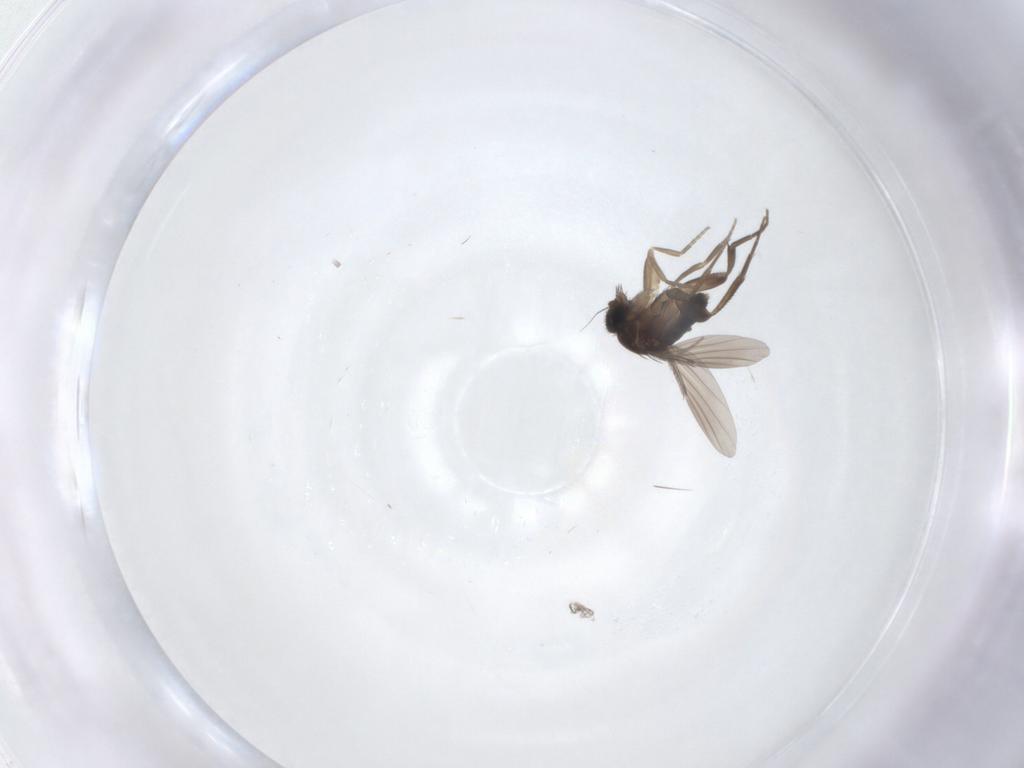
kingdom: Animalia
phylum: Arthropoda
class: Insecta
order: Diptera
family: Phoridae
